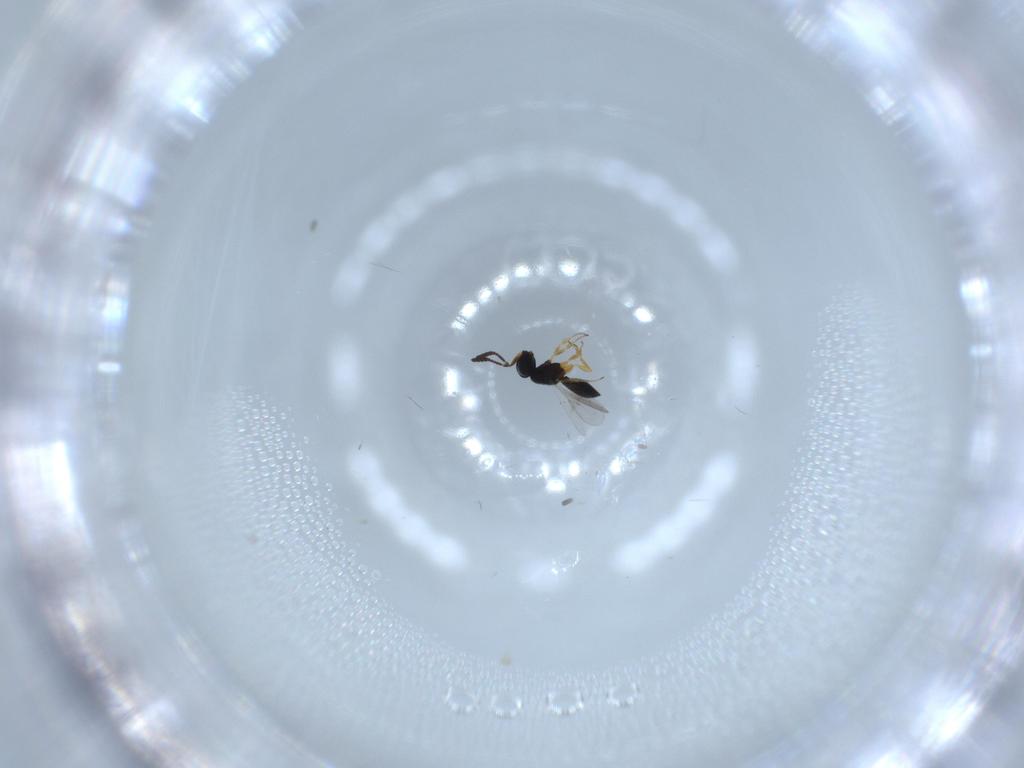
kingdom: Animalia
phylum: Arthropoda
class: Insecta
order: Hymenoptera
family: Scelionidae
